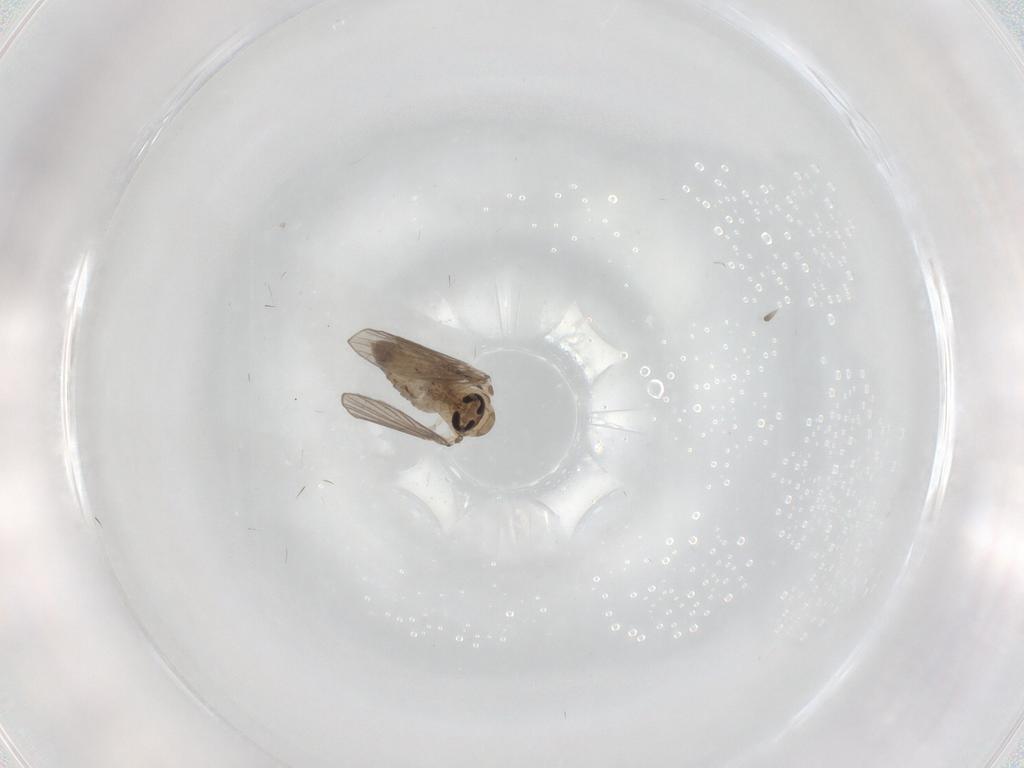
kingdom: Animalia
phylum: Arthropoda
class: Insecta
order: Diptera
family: Psychodidae
